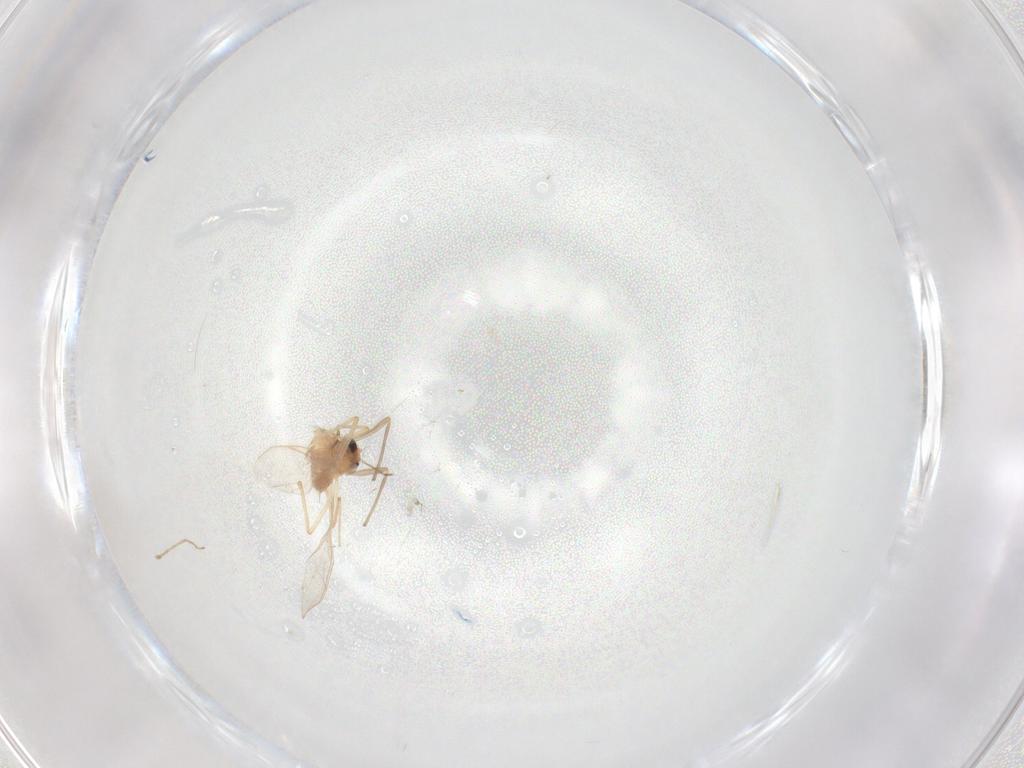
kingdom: Animalia
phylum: Arthropoda
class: Insecta
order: Diptera
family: Chironomidae
